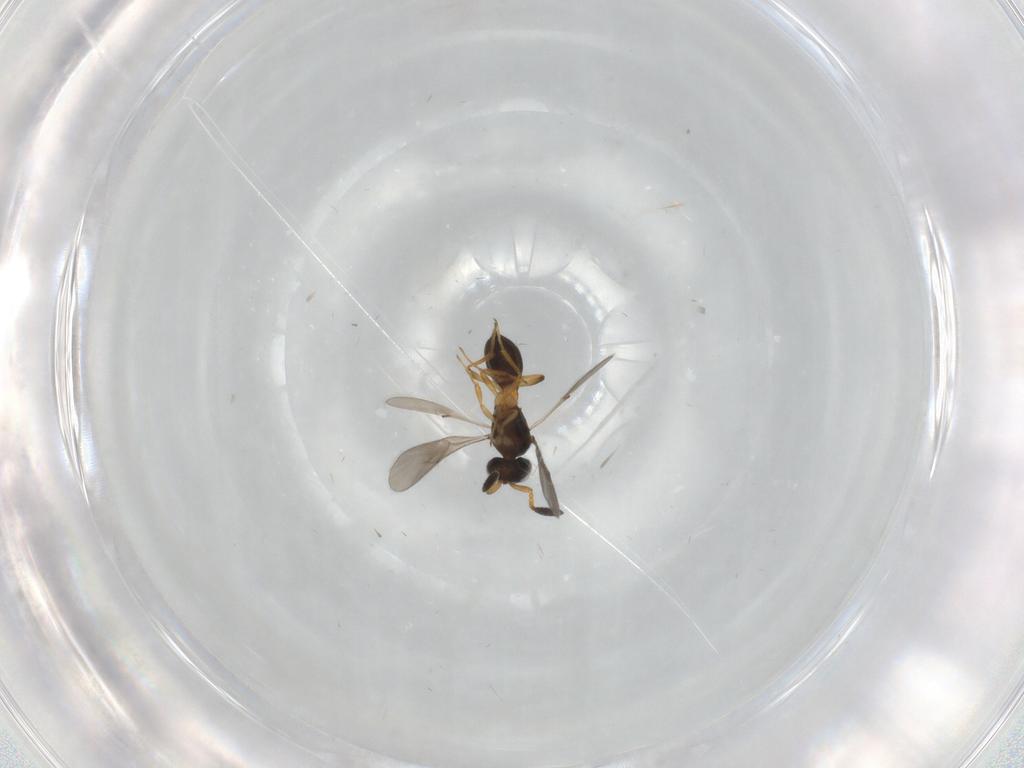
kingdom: Animalia
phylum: Arthropoda
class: Insecta
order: Hymenoptera
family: Scelionidae
